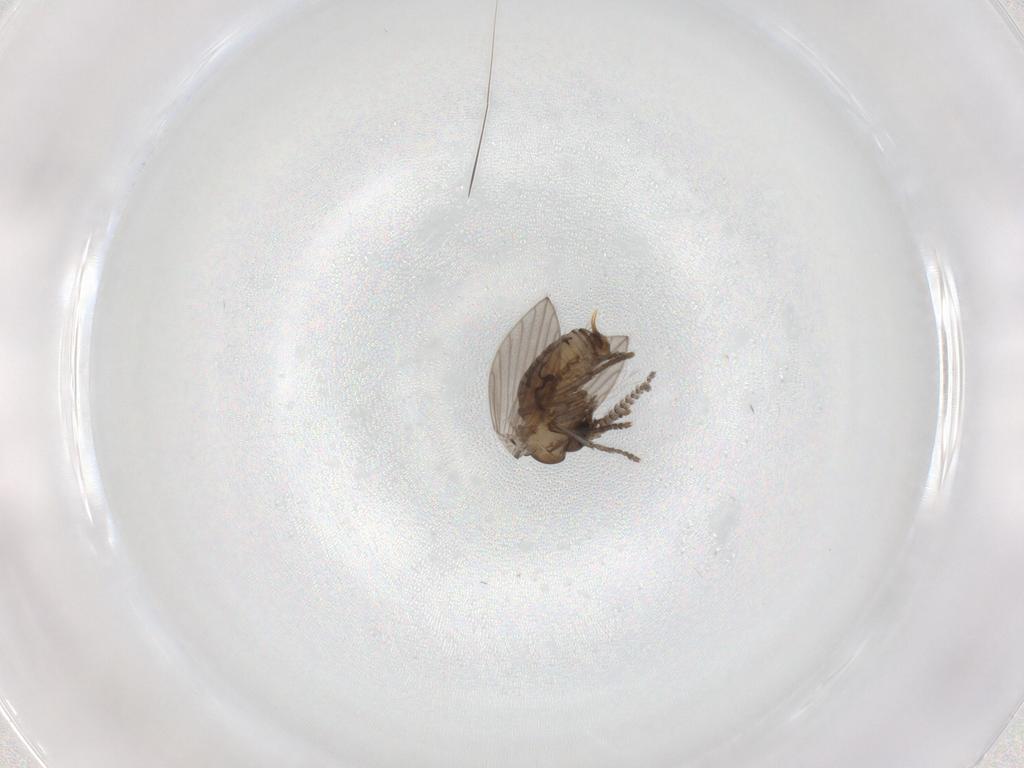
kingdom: Animalia
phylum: Arthropoda
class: Insecta
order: Diptera
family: Psychodidae
